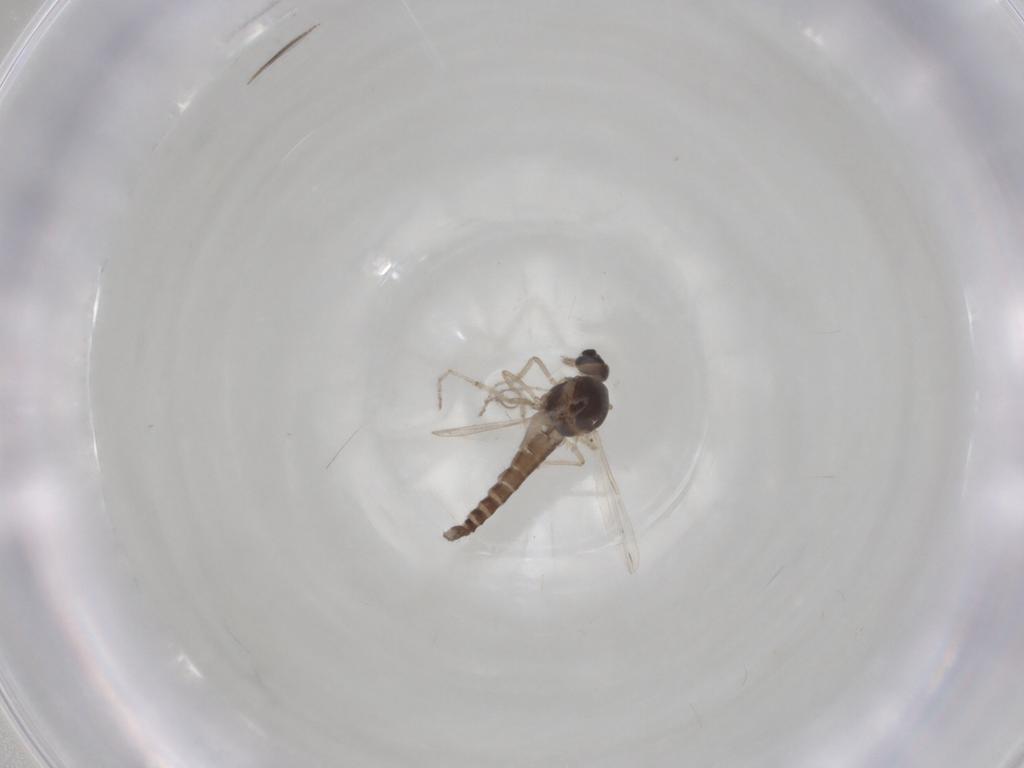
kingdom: Animalia
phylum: Arthropoda
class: Insecta
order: Diptera
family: Ceratopogonidae
